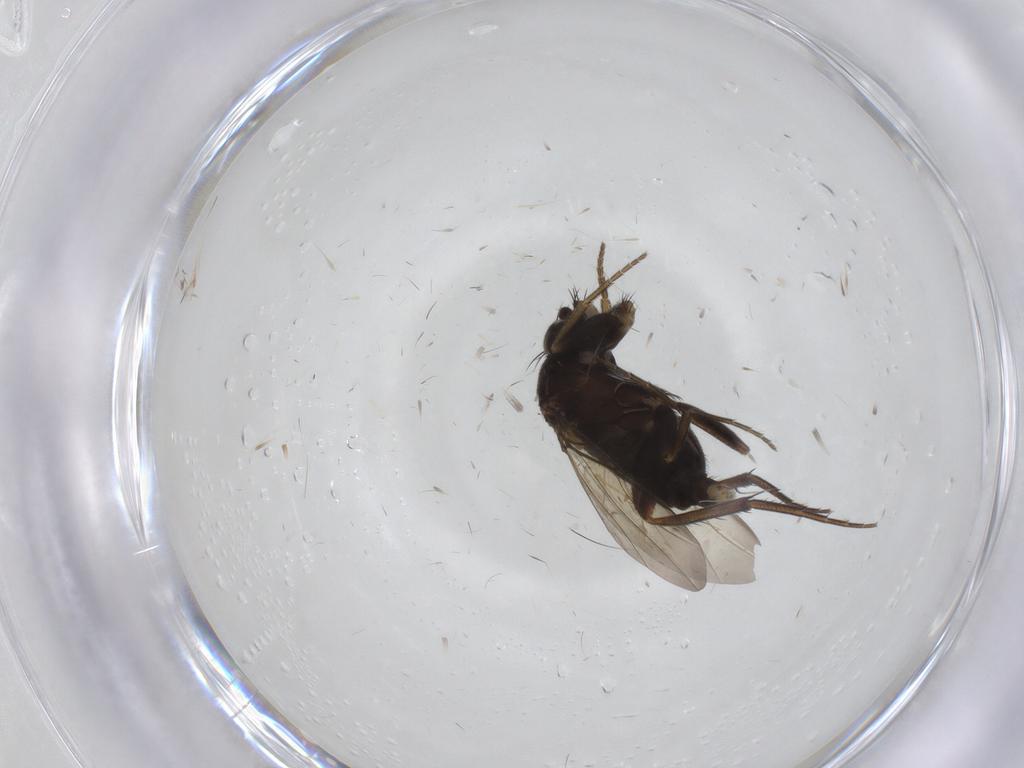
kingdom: Animalia
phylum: Arthropoda
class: Insecta
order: Diptera
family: Phoridae
